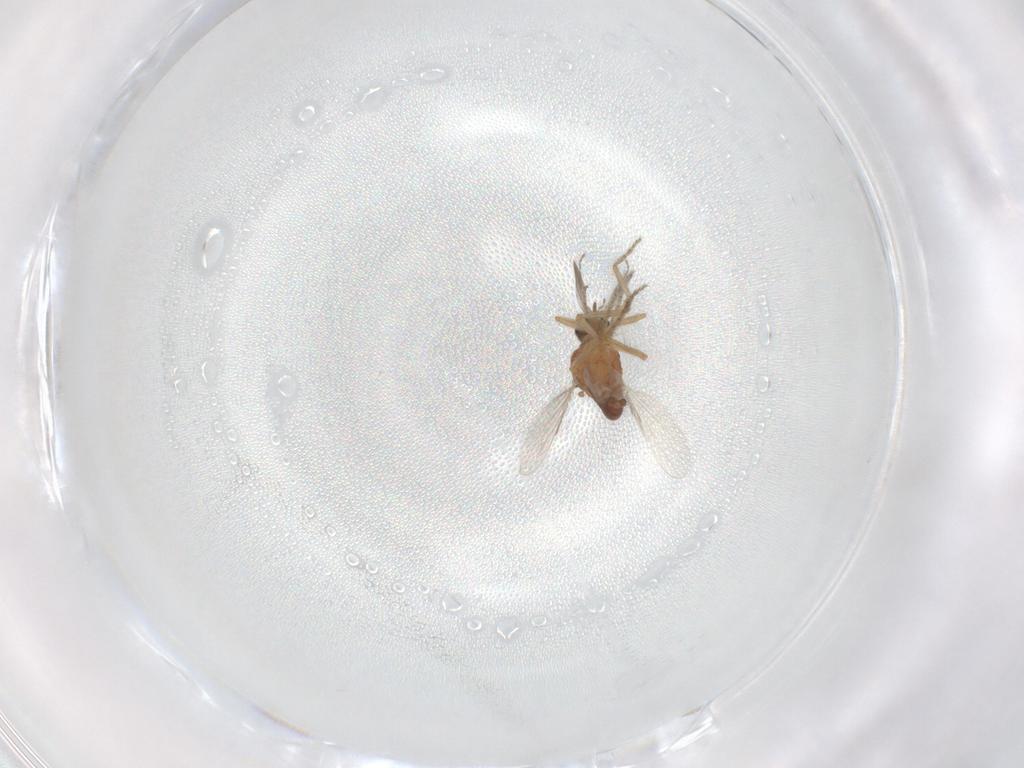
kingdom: Animalia
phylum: Arthropoda
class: Insecta
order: Diptera
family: Ceratopogonidae
